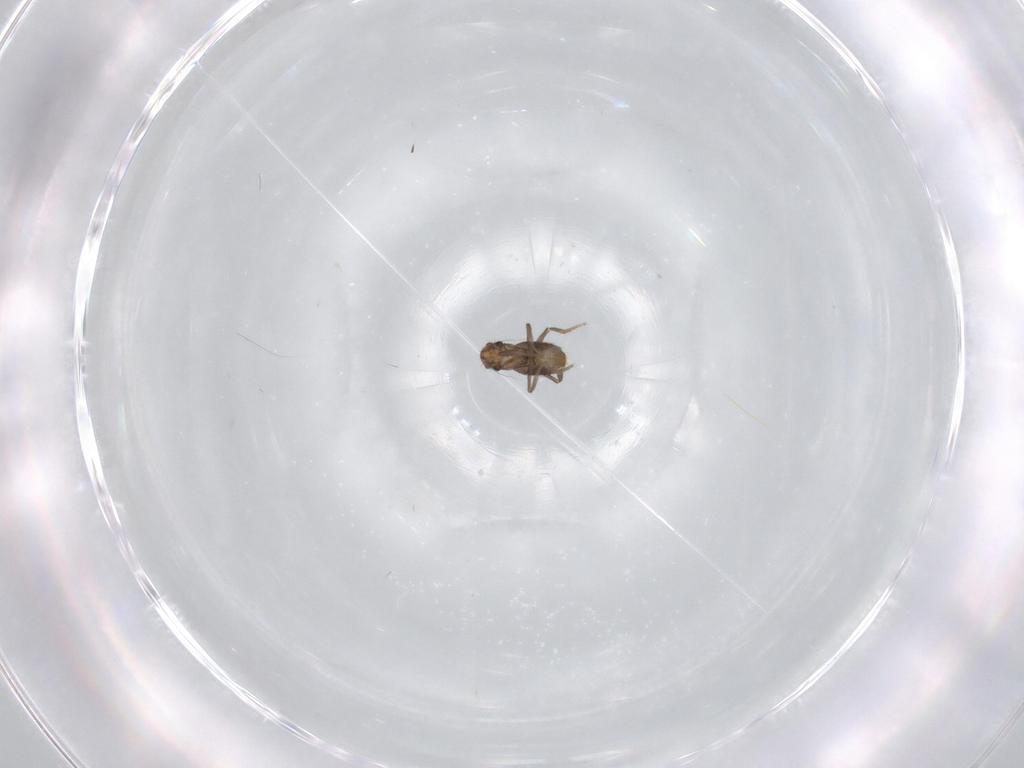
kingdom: Animalia
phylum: Arthropoda
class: Insecta
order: Diptera
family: Phoridae
